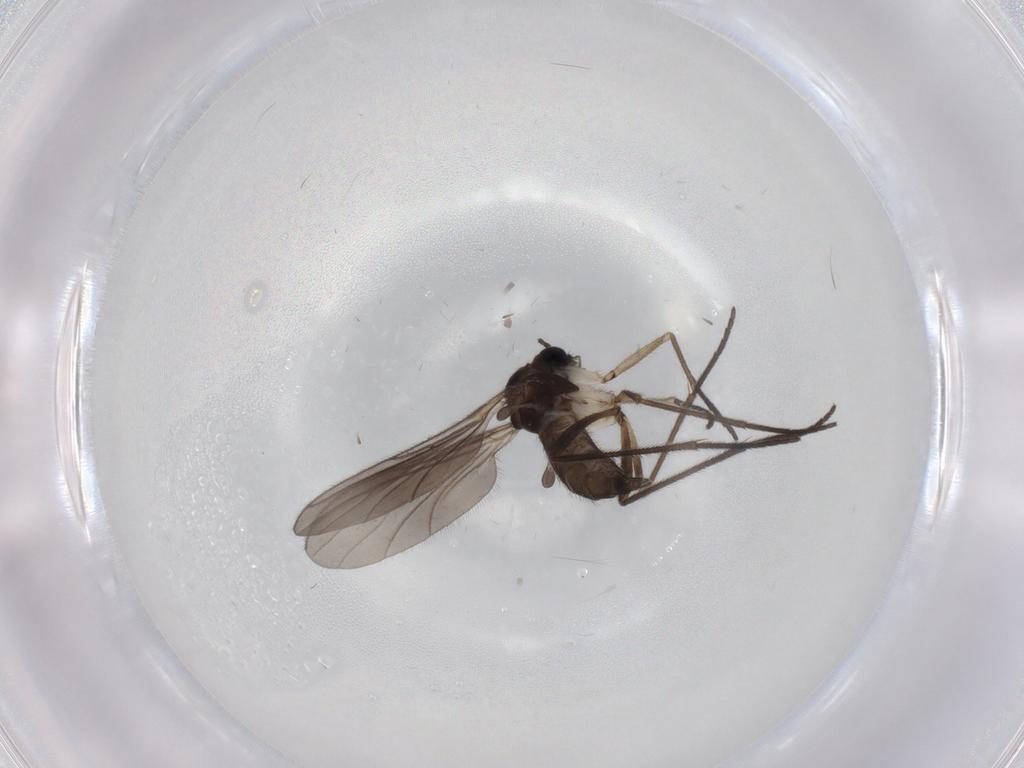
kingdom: Animalia
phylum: Arthropoda
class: Insecta
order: Diptera
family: Sciaridae
